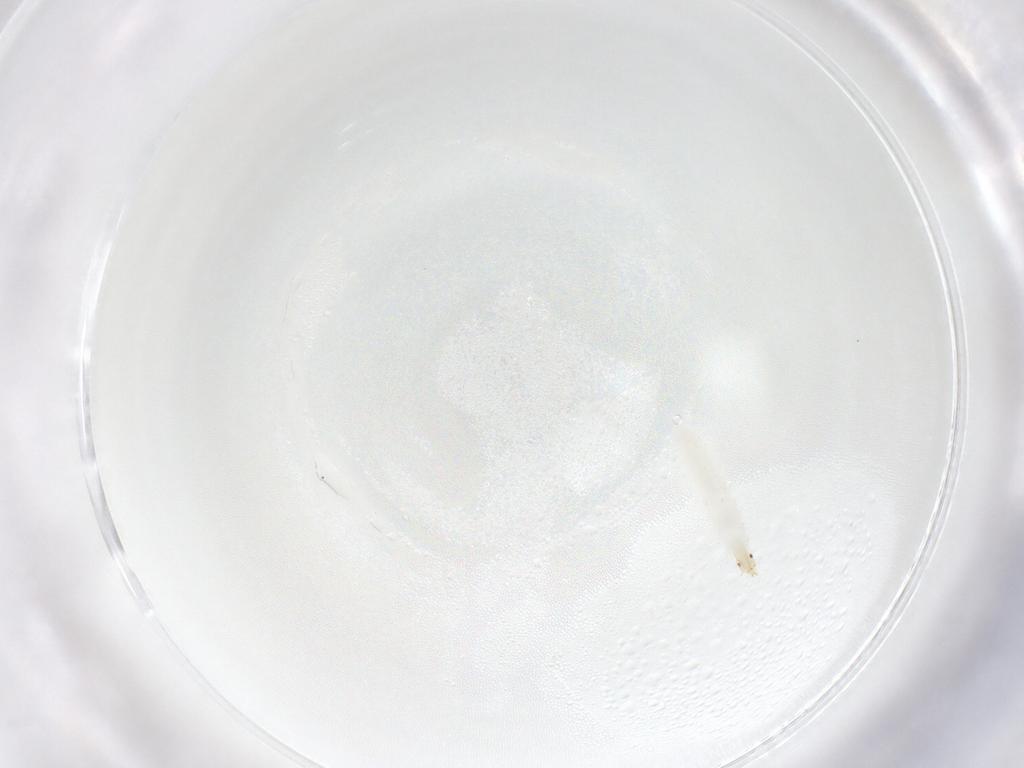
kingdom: Animalia
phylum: Arthropoda
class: Insecta
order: Diptera
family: Stratiomyidae
